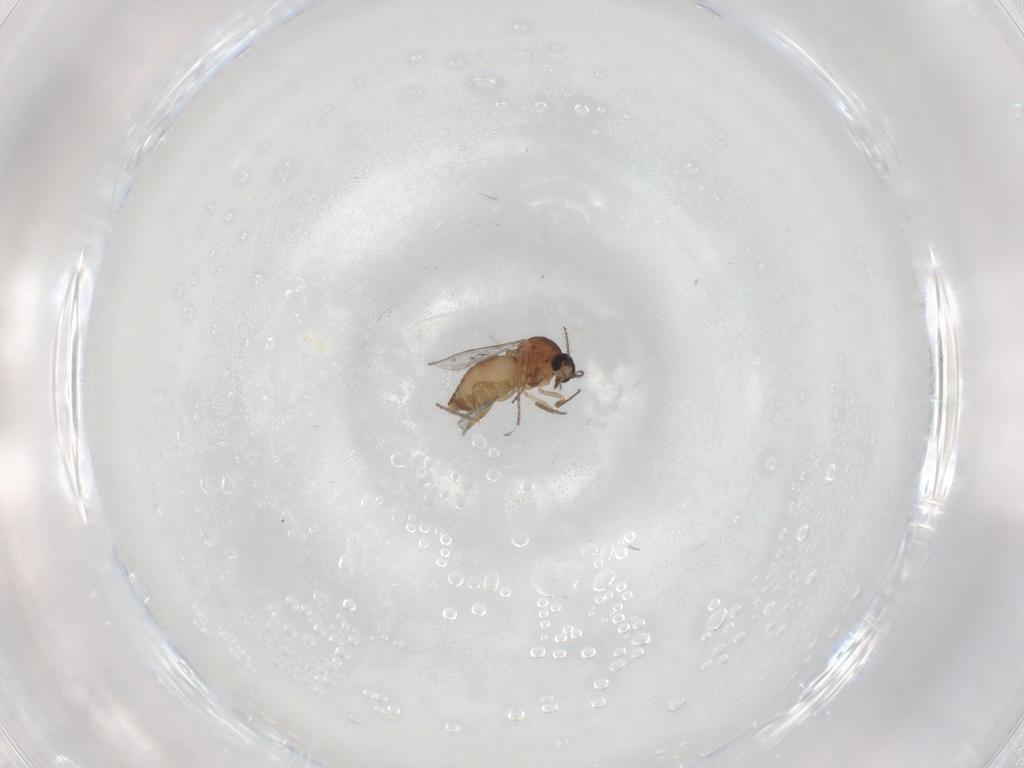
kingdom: Animalia
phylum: Arthropoda
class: Insecta
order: Diptera
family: Ceratopogonidae
